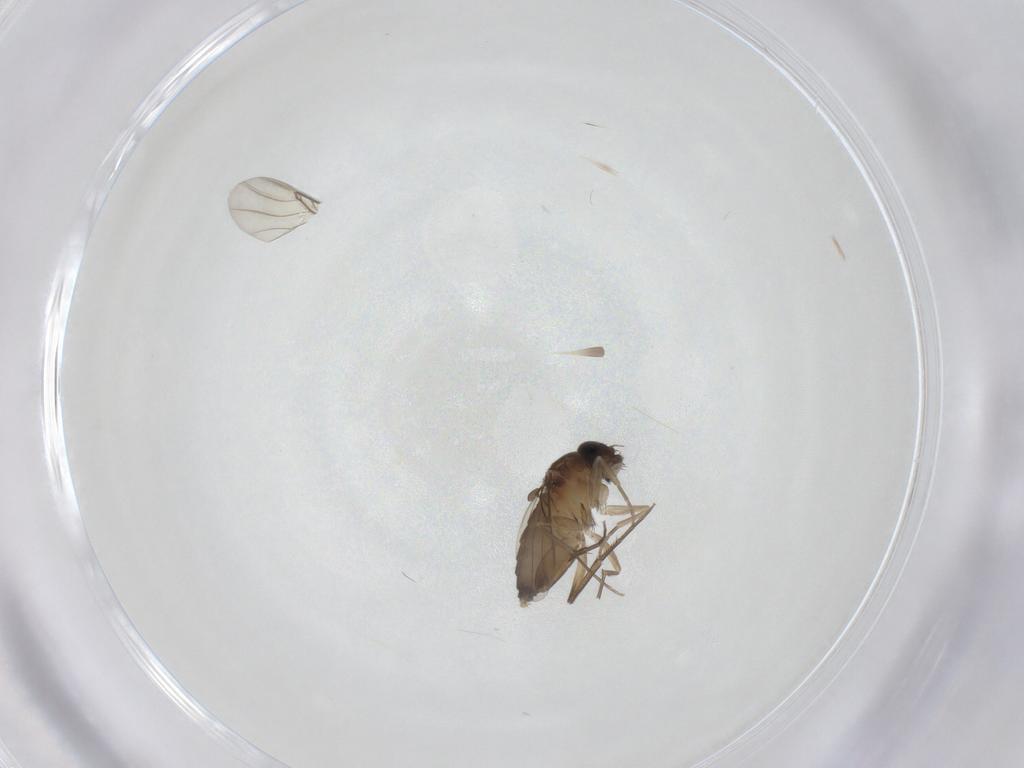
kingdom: Animalia
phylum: Arthropoda
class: Insecta
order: Diptera
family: Phoridae
